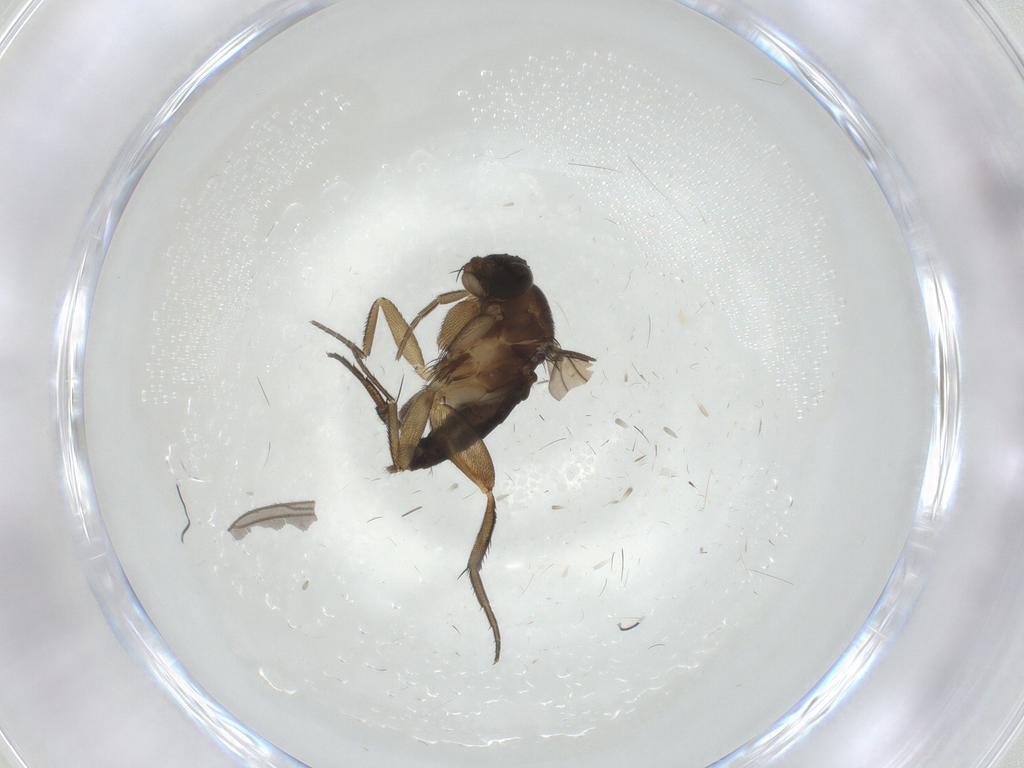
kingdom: Animalia
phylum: Arthropoda
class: Insecta
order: Diptera
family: Phoridae
